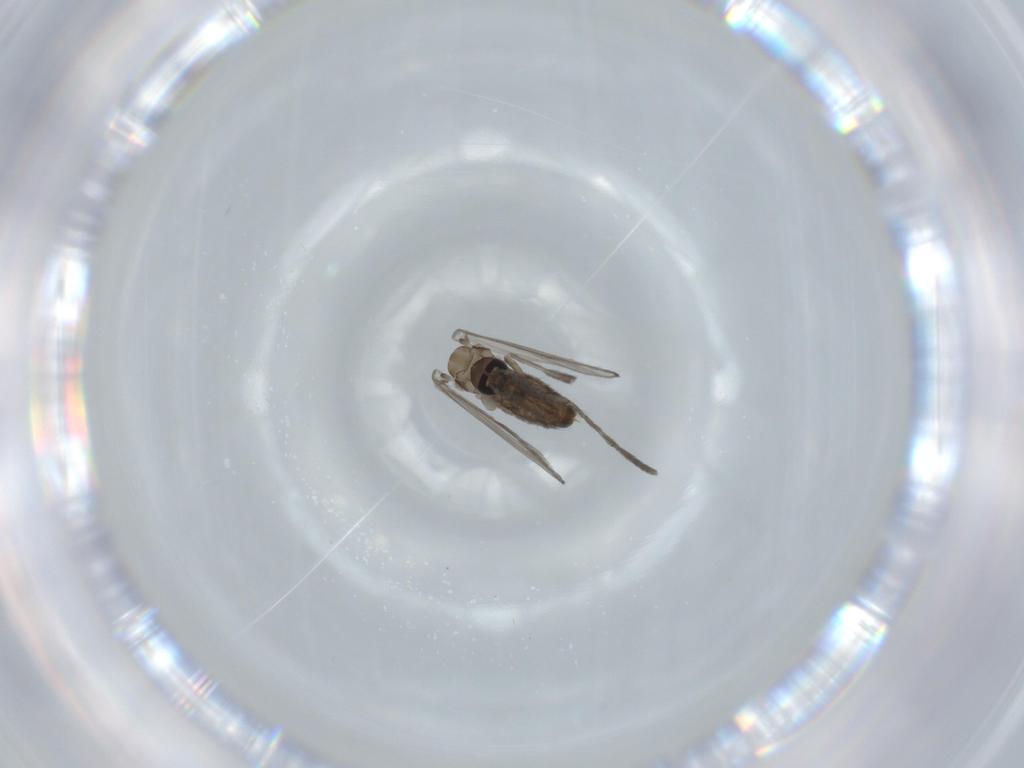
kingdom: Animalia
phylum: Arthropoda
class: Insecta
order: Diptera
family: Psychodidae
